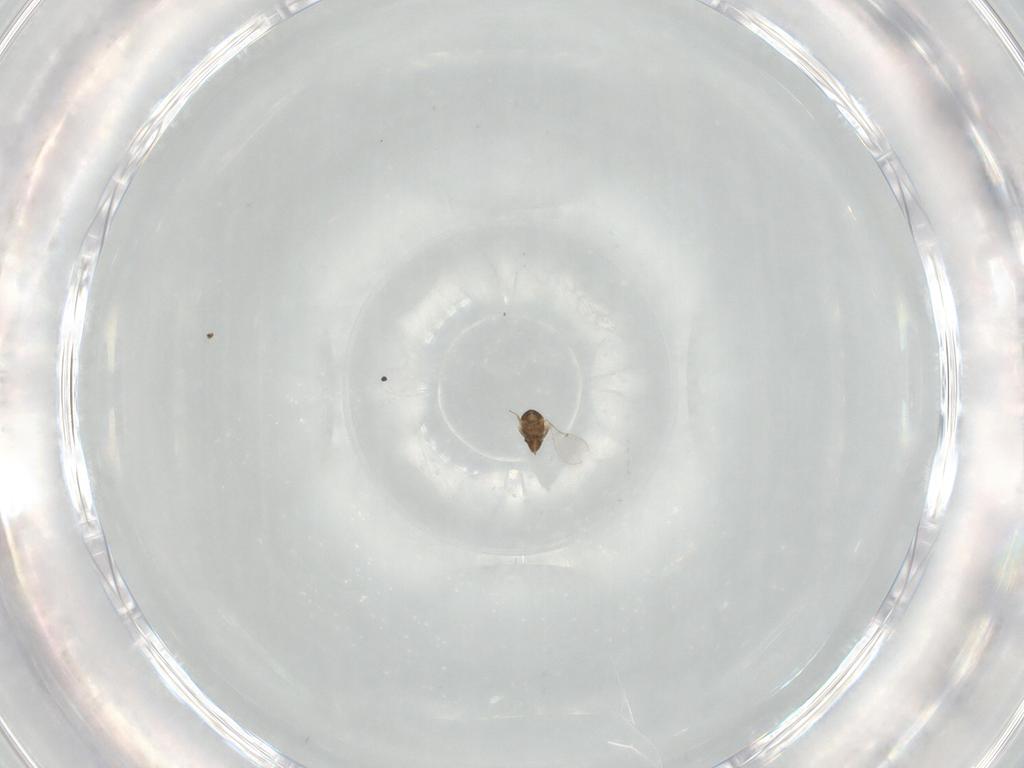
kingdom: Animalia
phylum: Arthropoda
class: Insecta
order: Hymenoptera
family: Encyrtidae
